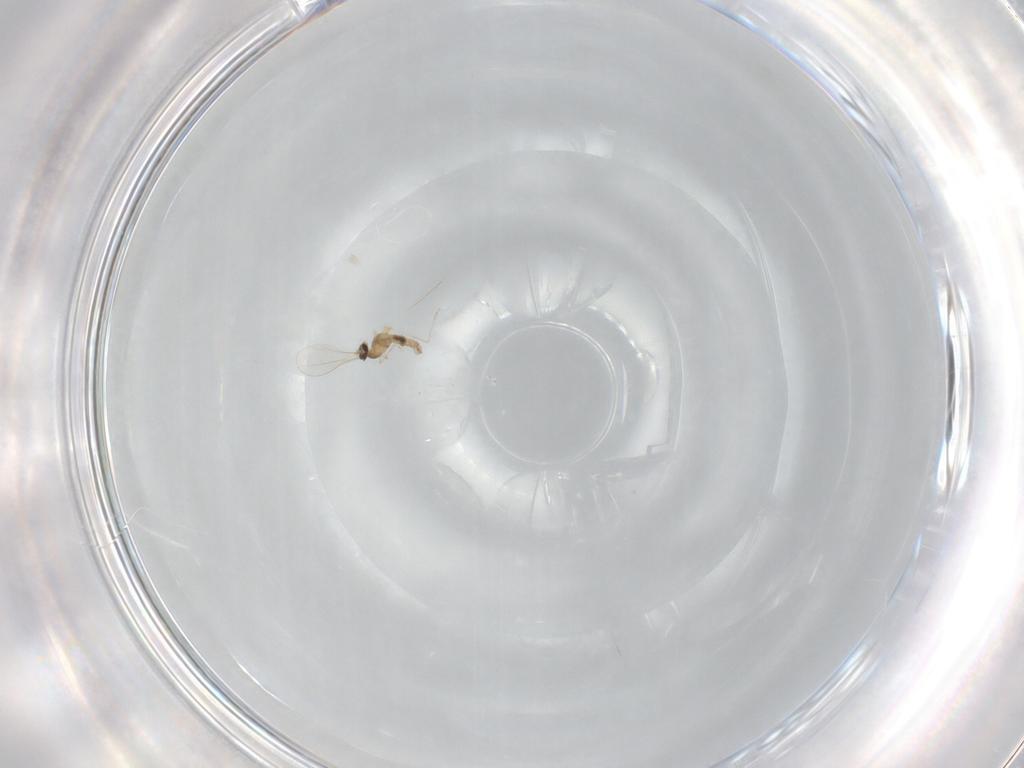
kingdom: Animalia
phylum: Arthropoda
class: Insecta
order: Diptera
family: Cecidomyiidae
